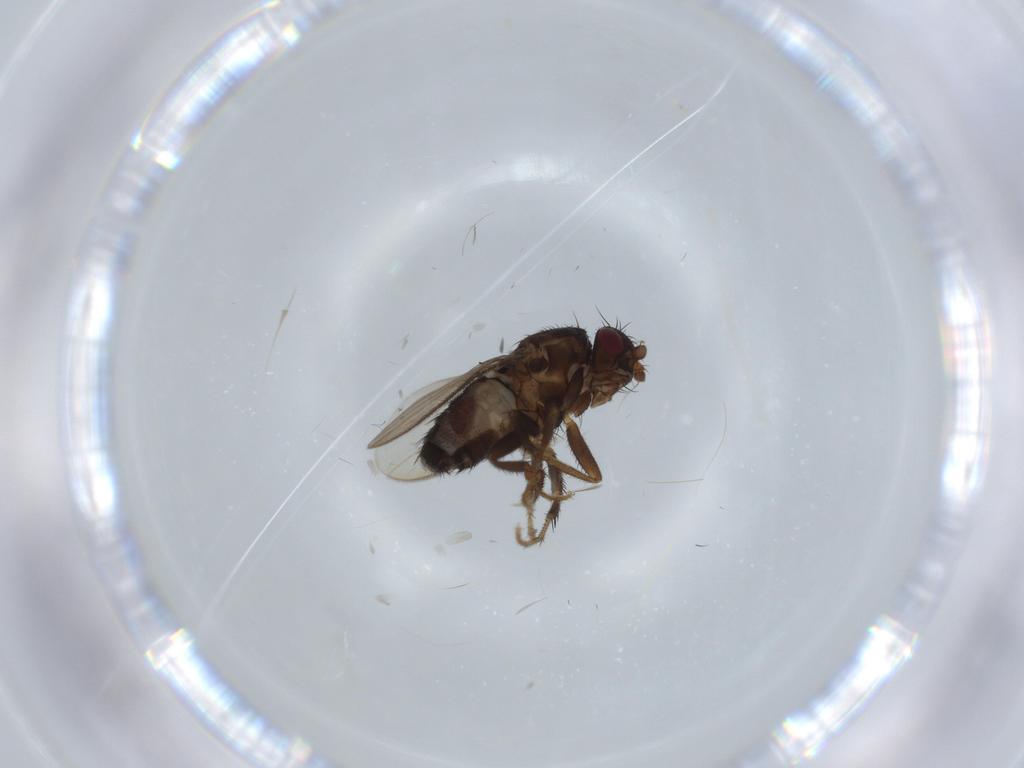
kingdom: Animalia
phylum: Arthropoda
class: Insecta
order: Diptera
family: Sphaeroceridae
